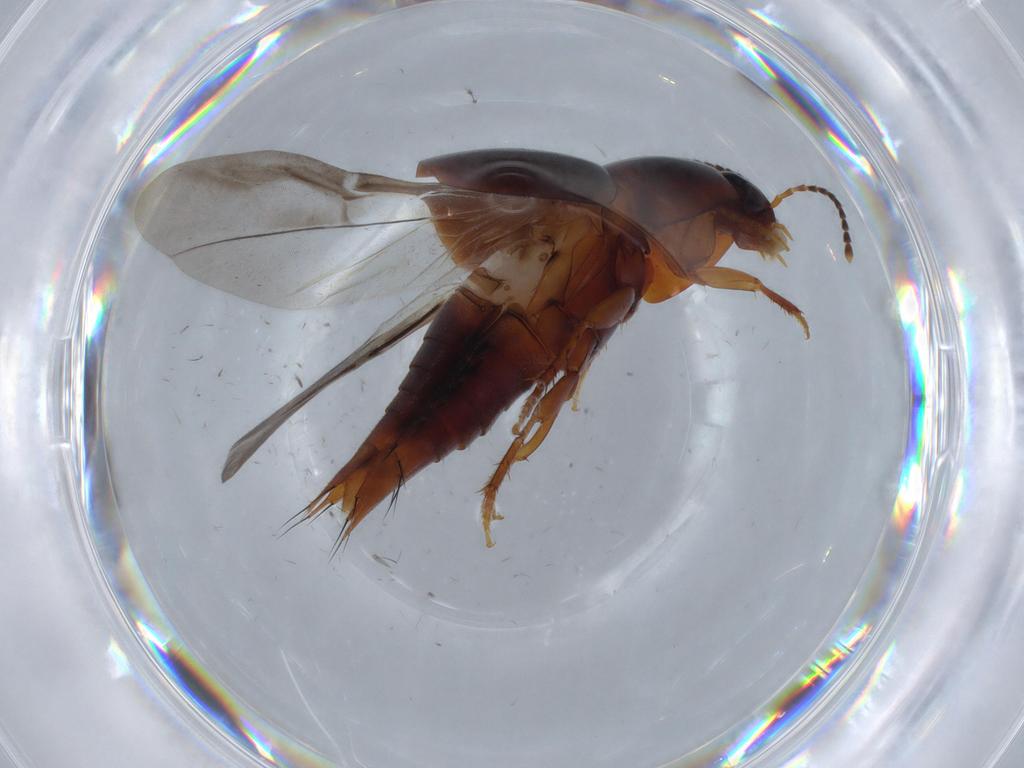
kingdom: Animalia
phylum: Arthropoda
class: Insecta
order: Coleoptera
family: Staphylinidae
